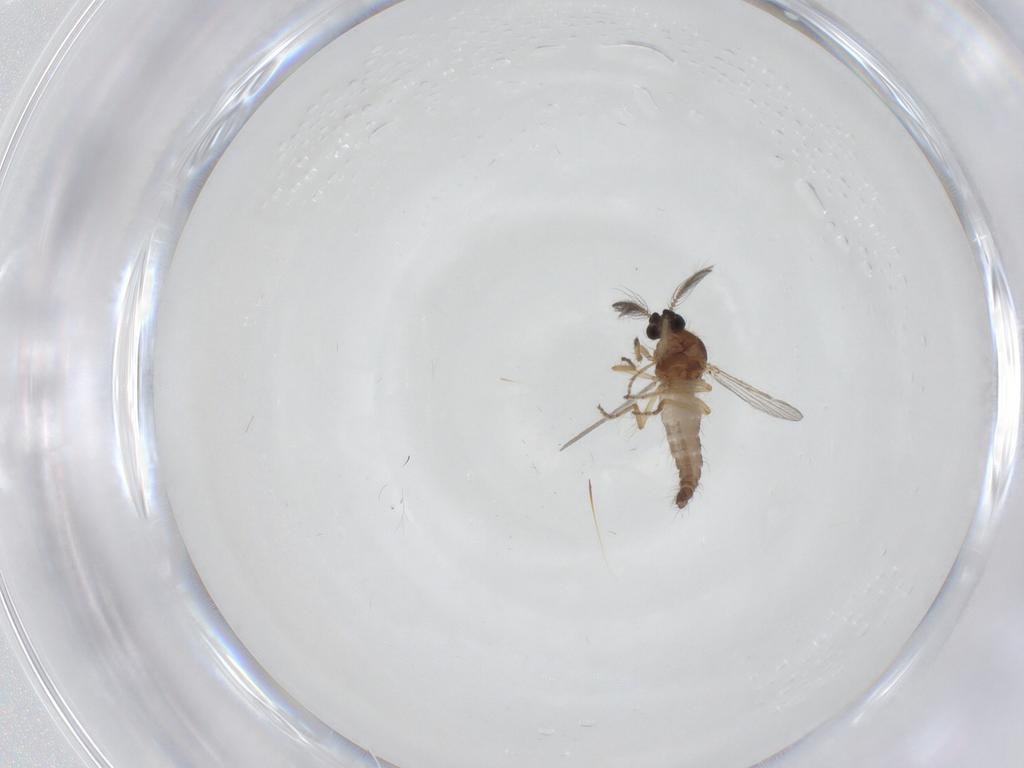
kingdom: Animalia
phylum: Arthropoda
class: Insecta
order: Diptera
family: Ceratopogonidae
